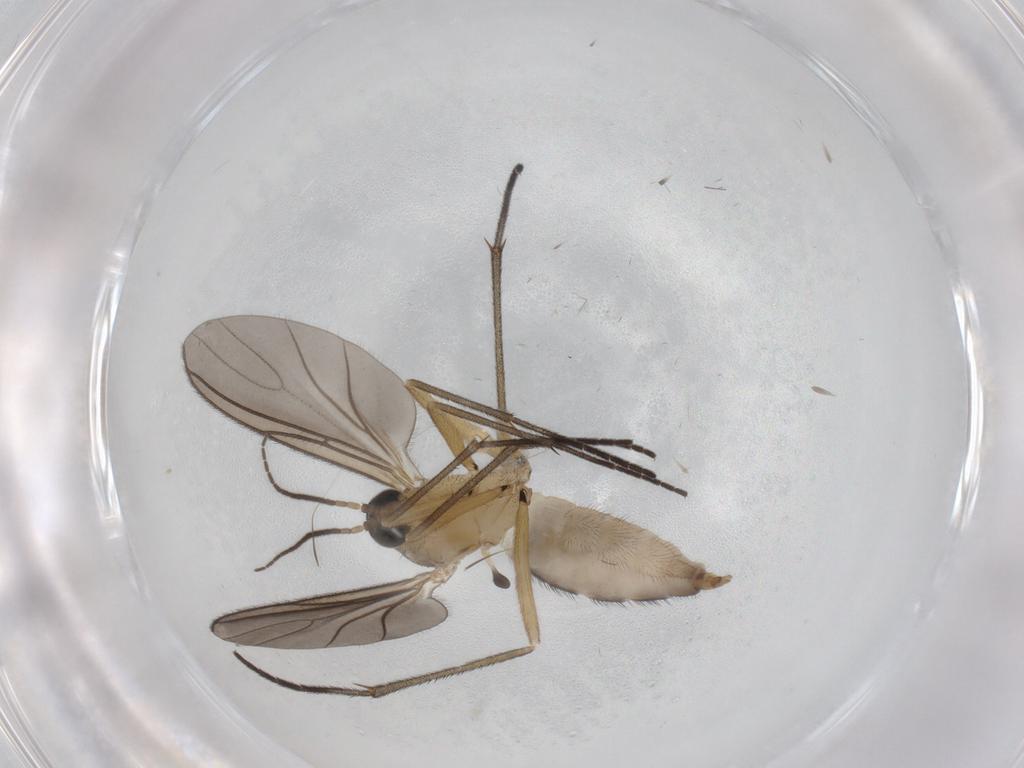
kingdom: Animalia
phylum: Arthropoda
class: Insecta
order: Diptera
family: Sciaridae
